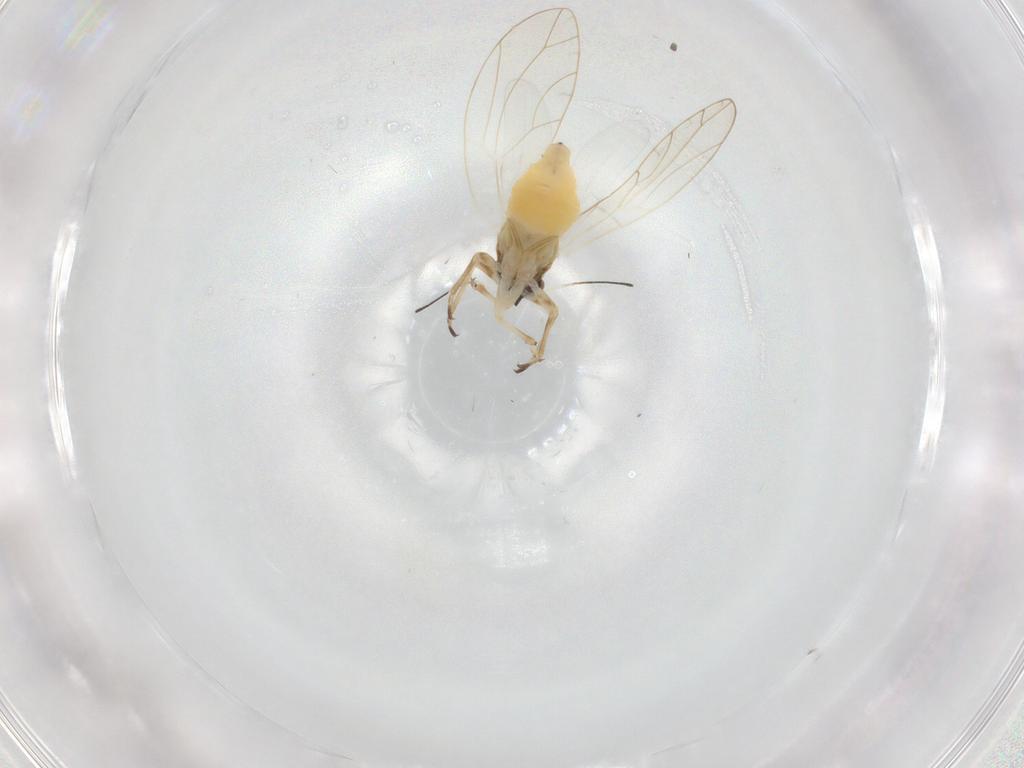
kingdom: Animalia
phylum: Arthropoda
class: Insecta
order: Hemiptera
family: Triozidae
